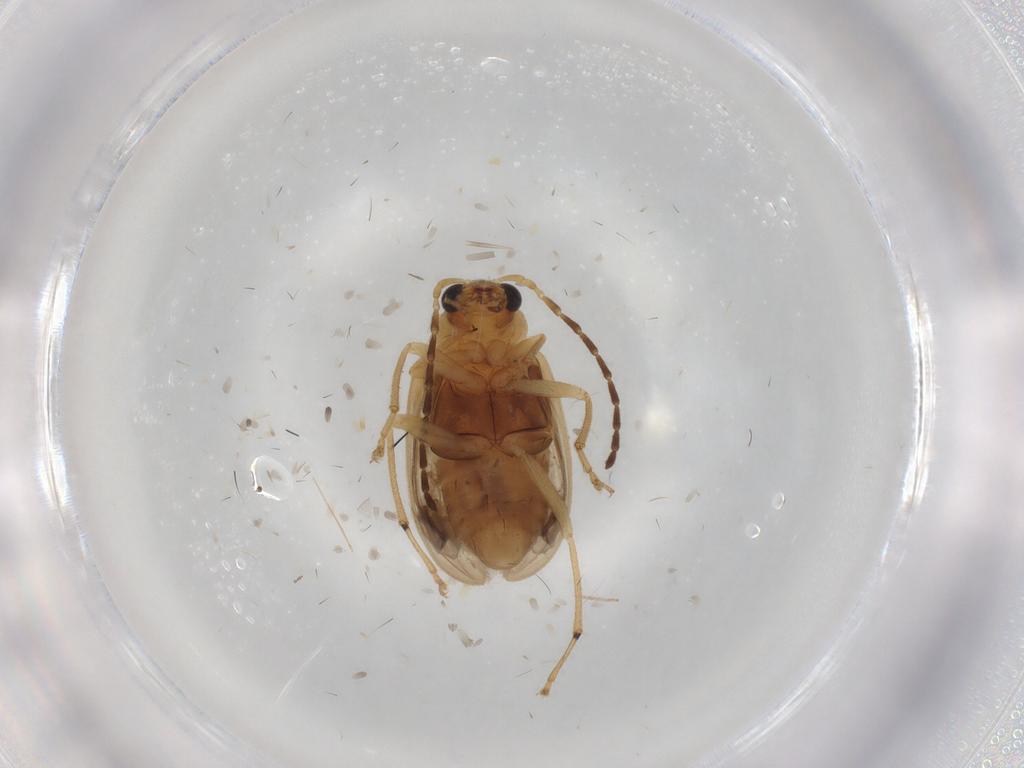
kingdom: Animalia
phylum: Arthropoda
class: Insecta
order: Coleoptera
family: Chrysomelidae
